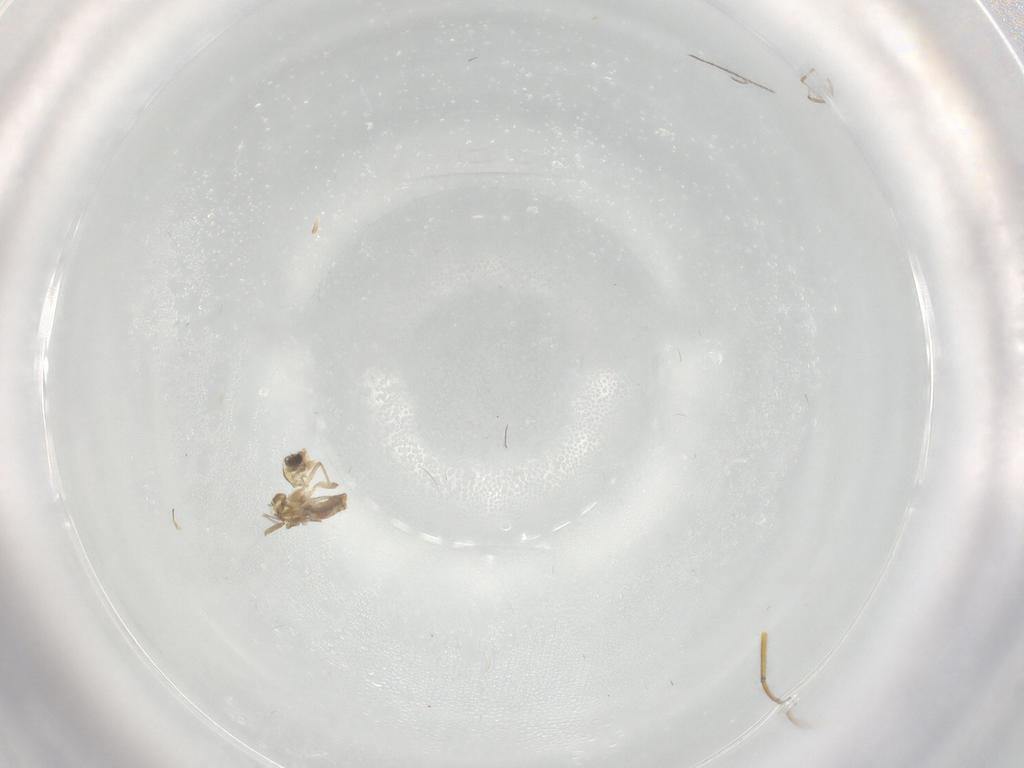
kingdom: Animalia
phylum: Arthropoda
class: Insecta
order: Diptera
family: Chironomidae
